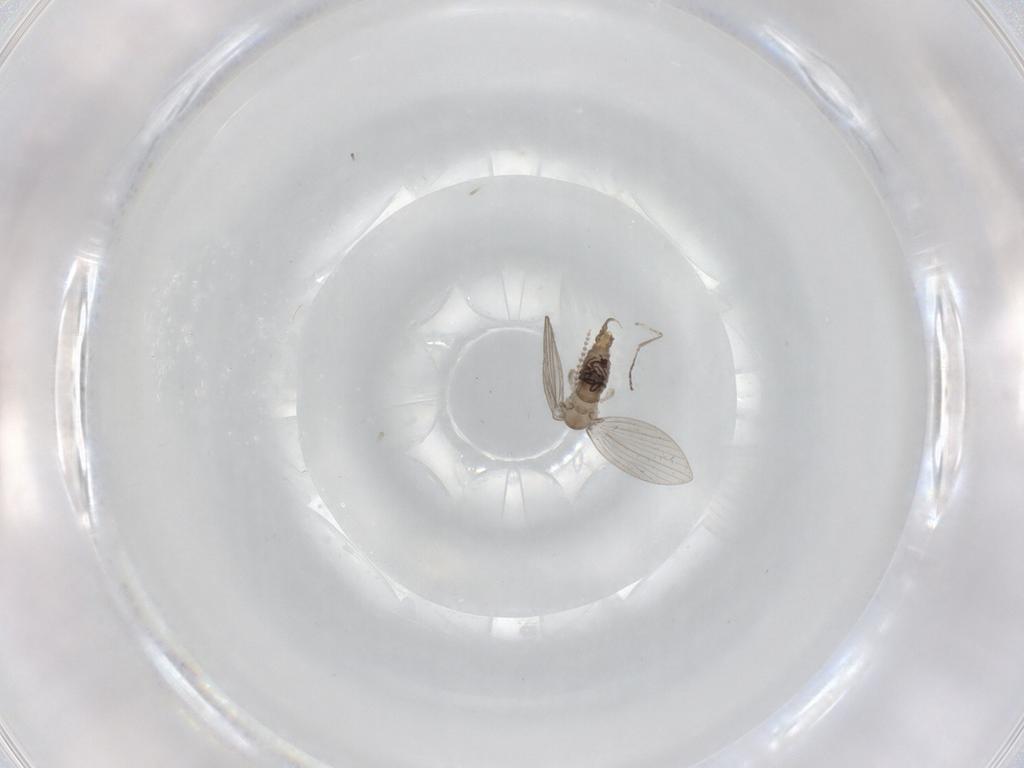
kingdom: Animalia
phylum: Arthropoda
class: Insecta
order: Diptera
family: Psychodidae
